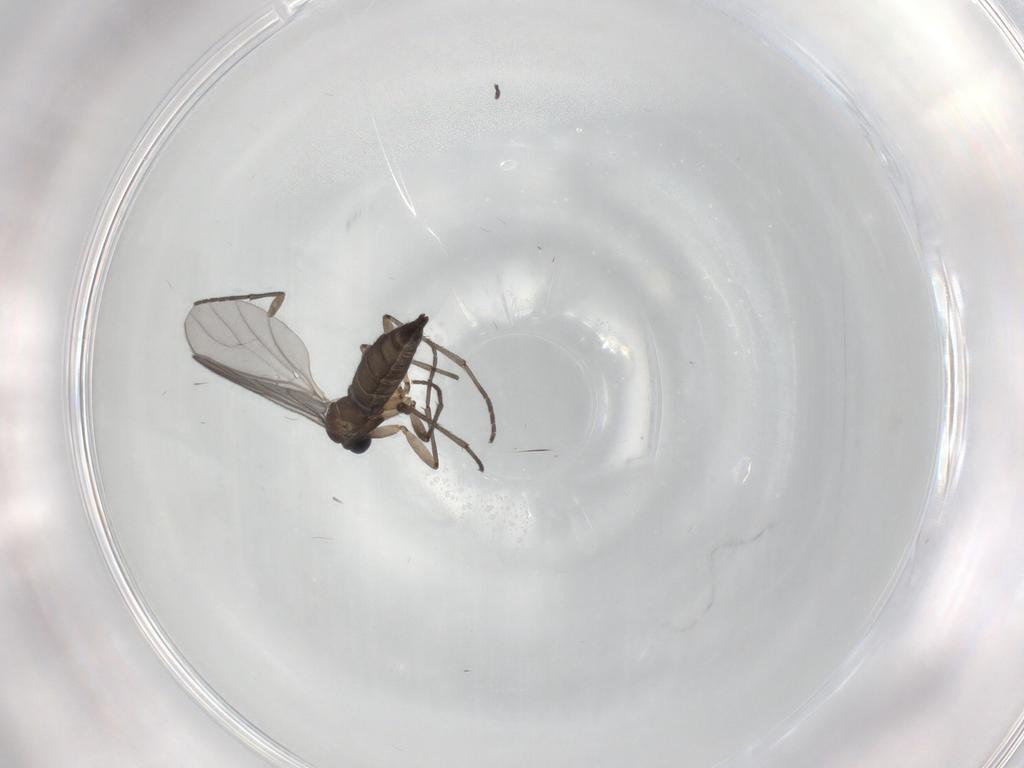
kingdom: Animalia
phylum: Arthropoda
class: Insecta
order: Diptera
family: Sciaridae
